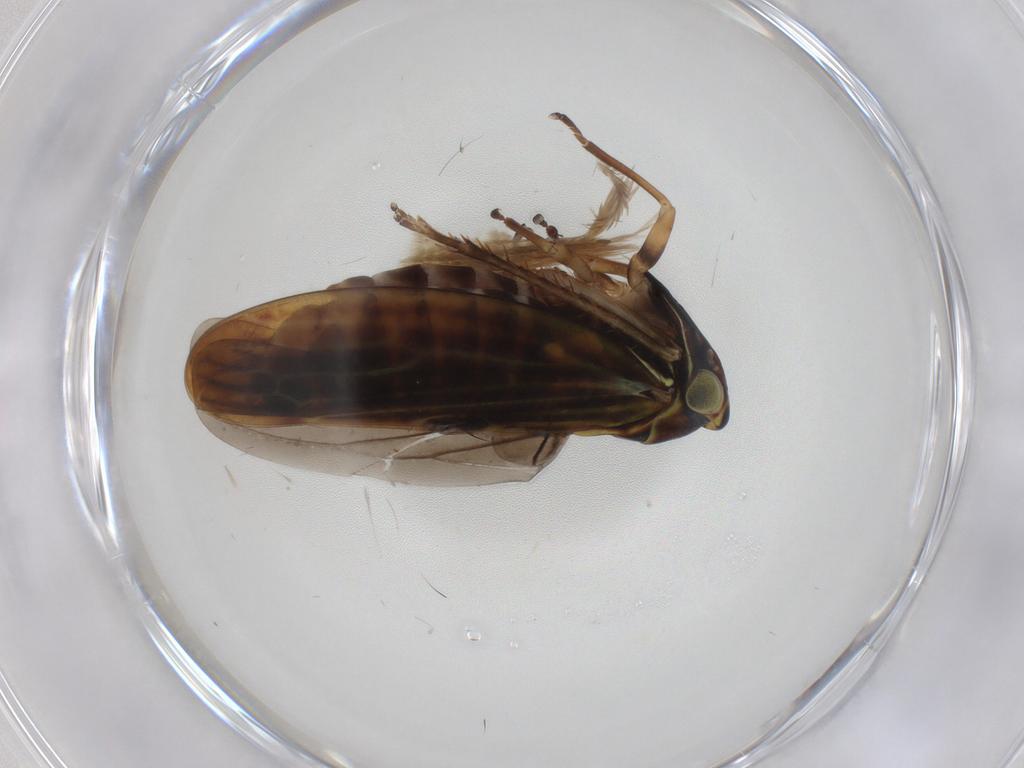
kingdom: Animalia
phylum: Arthropoda
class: Insecta
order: Hemiptera
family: Cicadellidae
